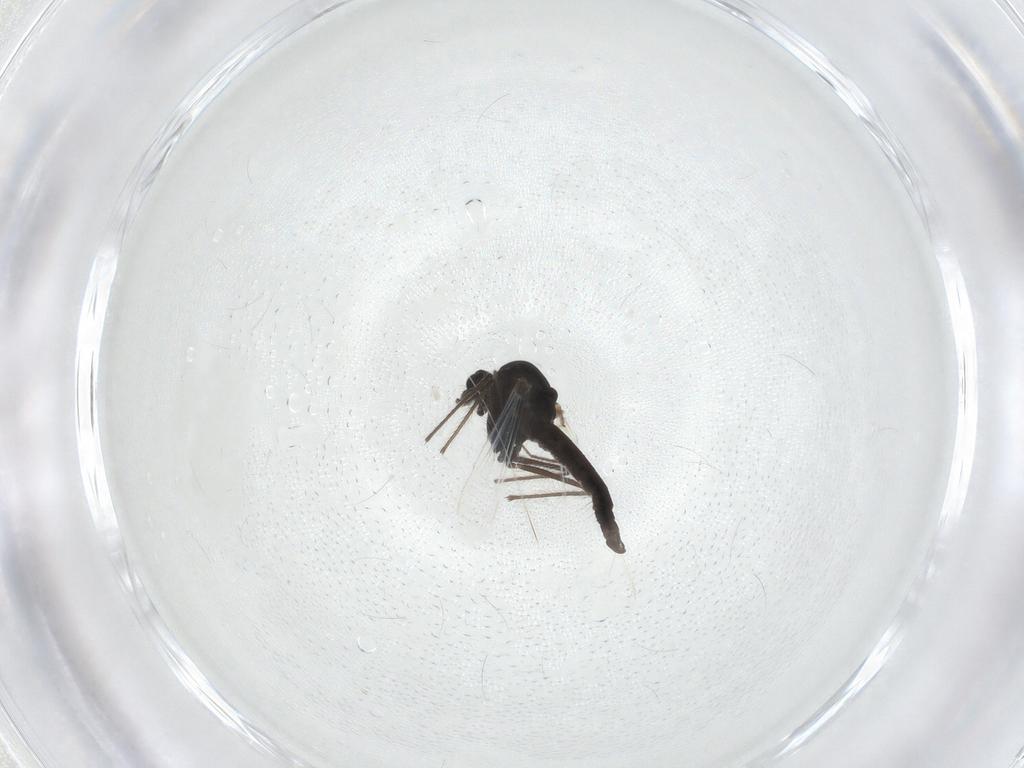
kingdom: Animalia
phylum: Arthropoda
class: Insecta
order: Diptera
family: Chironomidae
